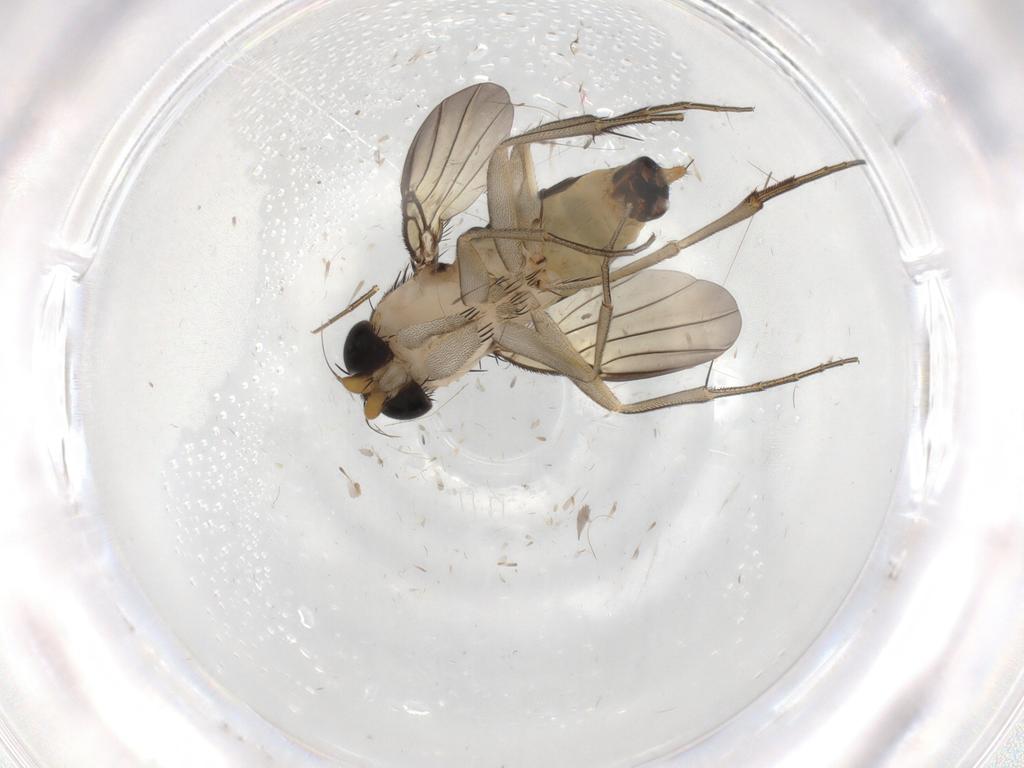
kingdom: Animalia
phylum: Arthropoda
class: Insecta
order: Diptera
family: Phoridae
